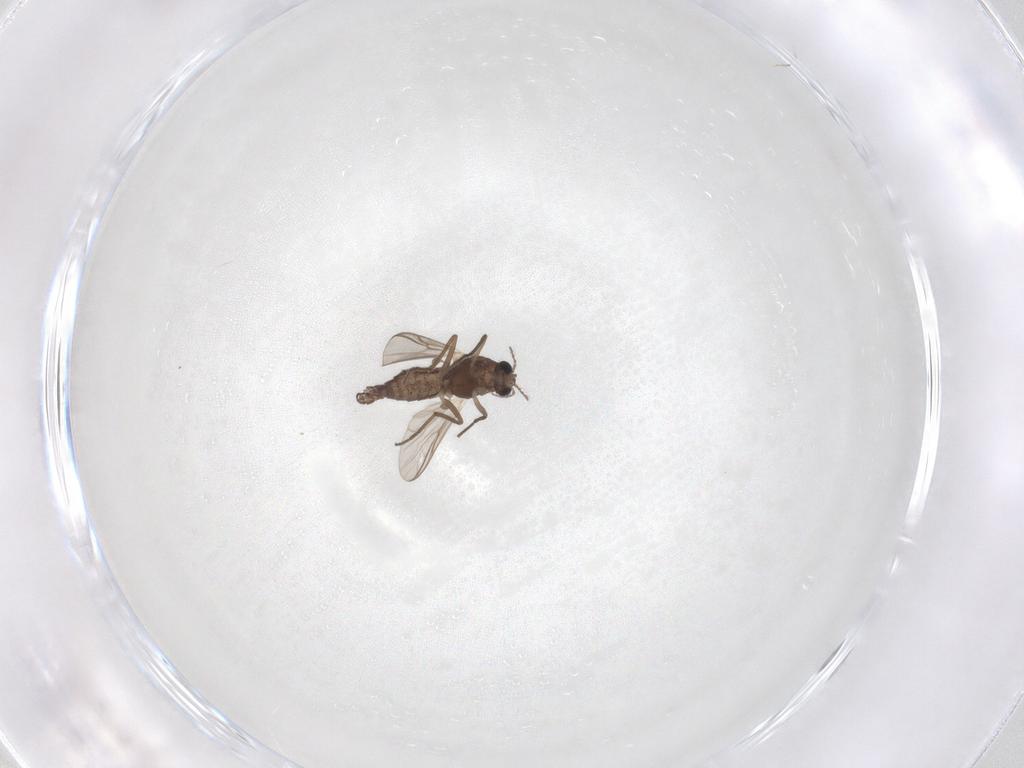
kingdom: Animalia
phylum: Arthropoda
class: Insecta
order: Diptera
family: Chironomidae
